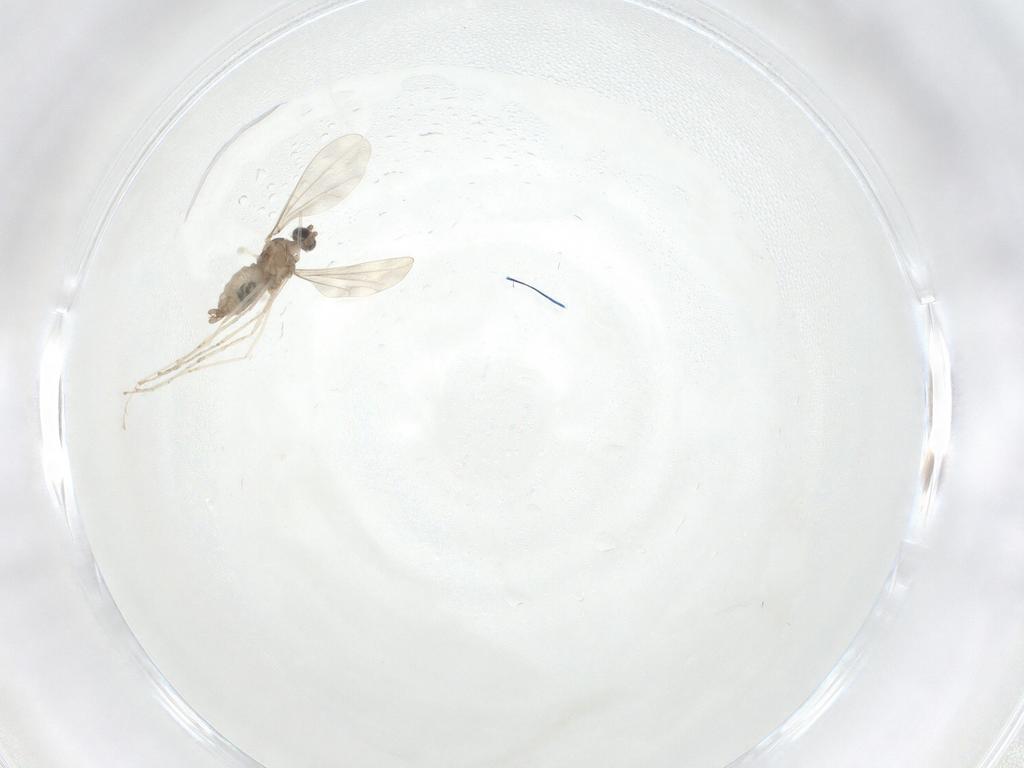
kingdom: Animalia
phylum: Arthropoda
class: Insecta
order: Diptera
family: Cecidomyiidae
